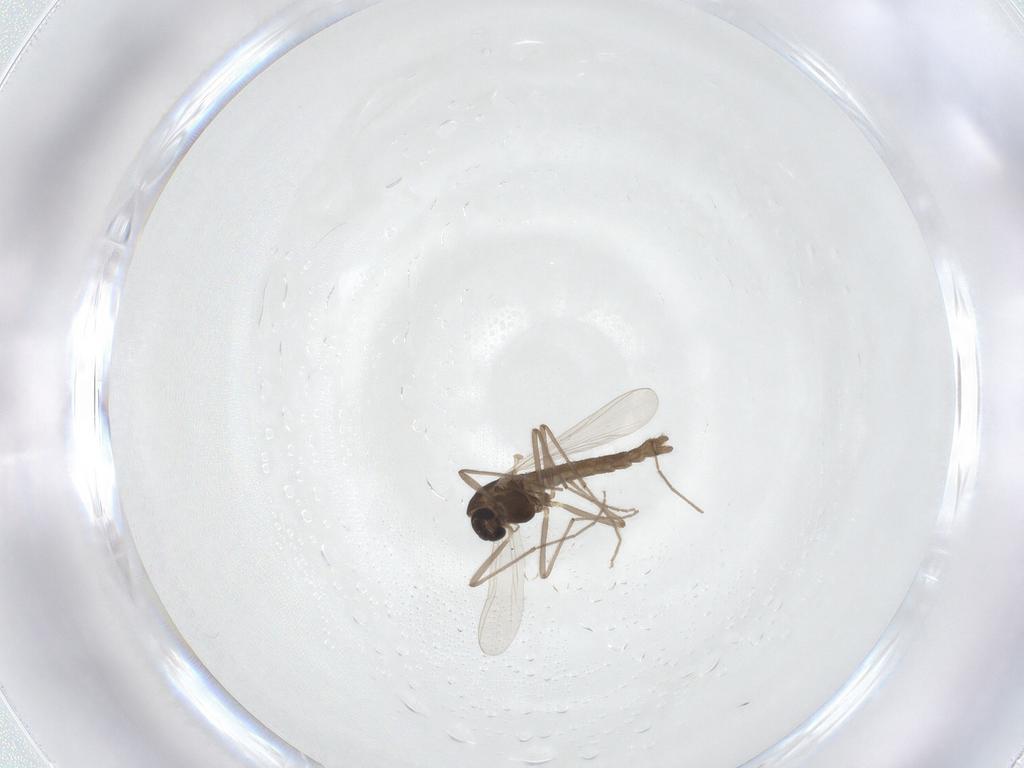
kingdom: Animalia
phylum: Arthropoda
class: Insecta
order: Diptera
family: Chironomidae
